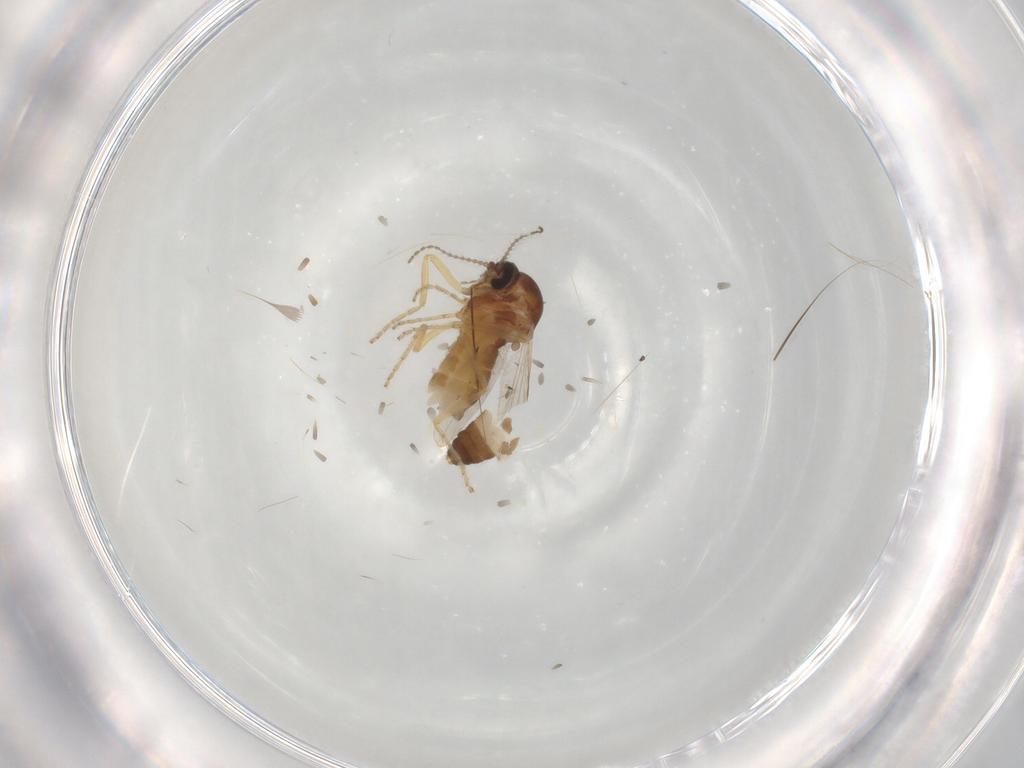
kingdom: Animalia
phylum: Arthropoda
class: Insecta
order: Diptera
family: Ceratopogonidae
